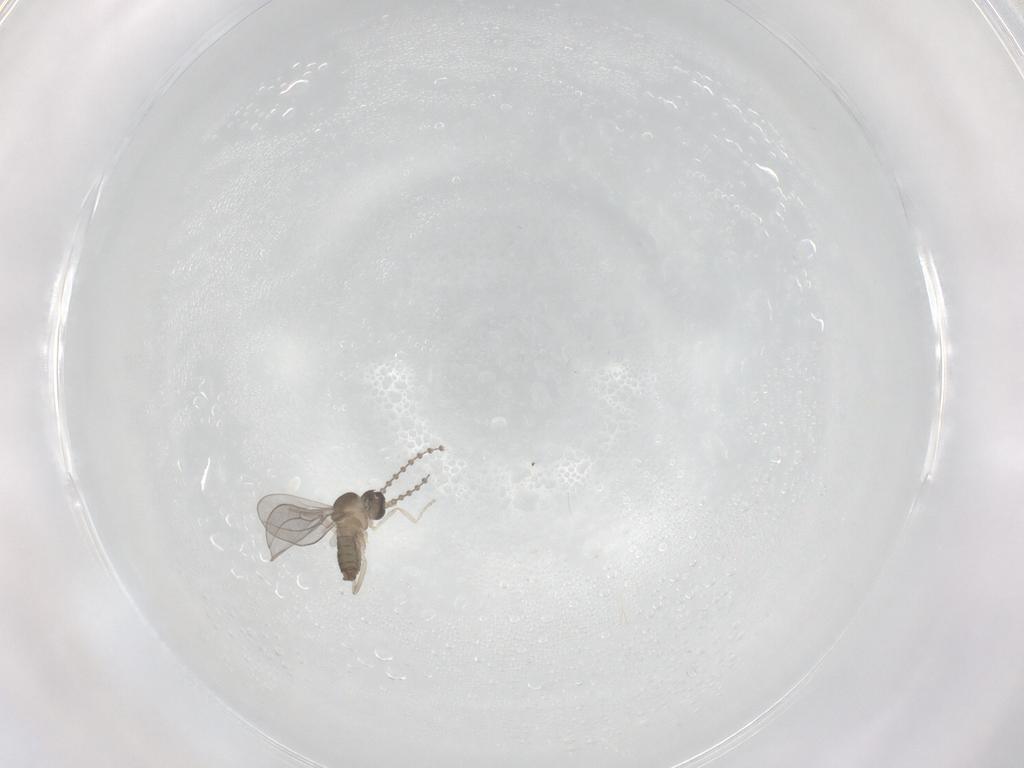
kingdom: Animalia
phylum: Arthropoda
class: Insecta
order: Diptera
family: Cecidomyiidae
